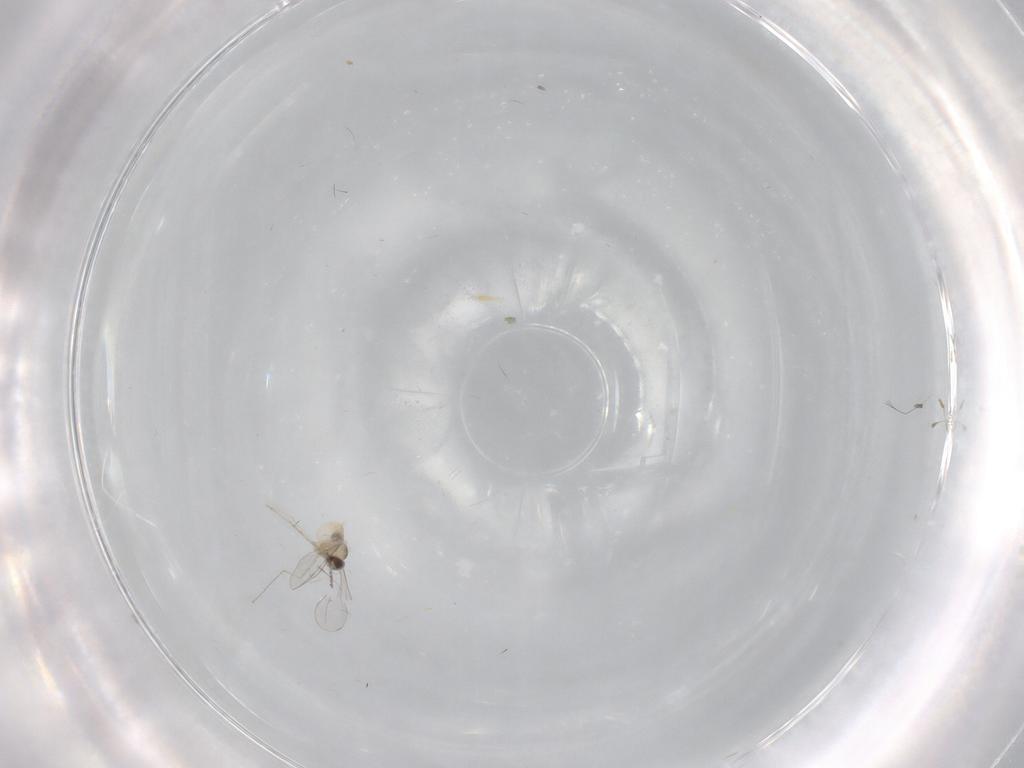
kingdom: Animalia
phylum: Arthropoda
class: Insecta
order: Diptera
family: Cecidomyiidae
